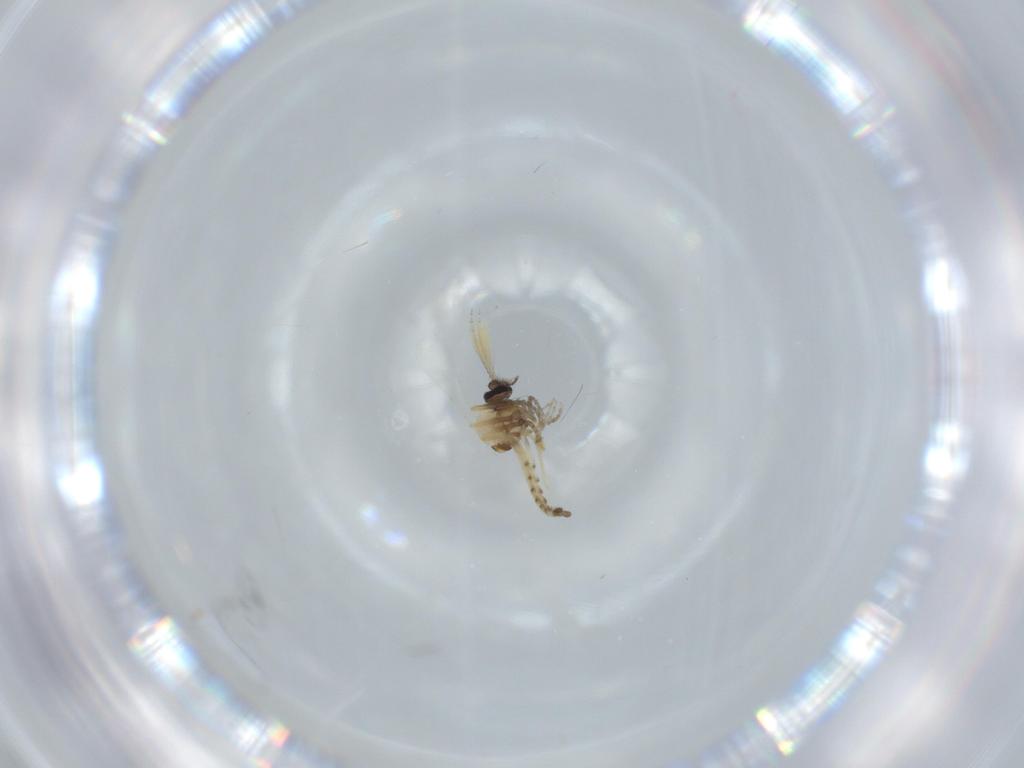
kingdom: Animalia
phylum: Arthropoda
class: Insecta
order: Diptera
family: Ceratopogonidae
